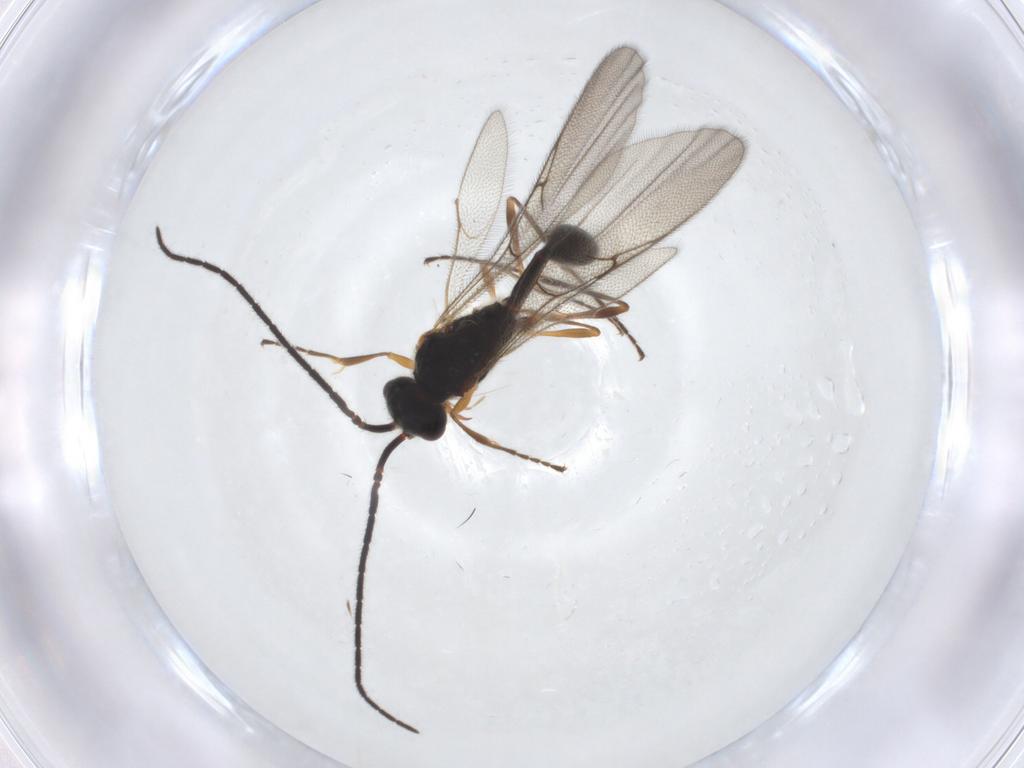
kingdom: Animalia
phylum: Arthropoda
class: Insecta
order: Hymenoptera
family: Diapriidae
